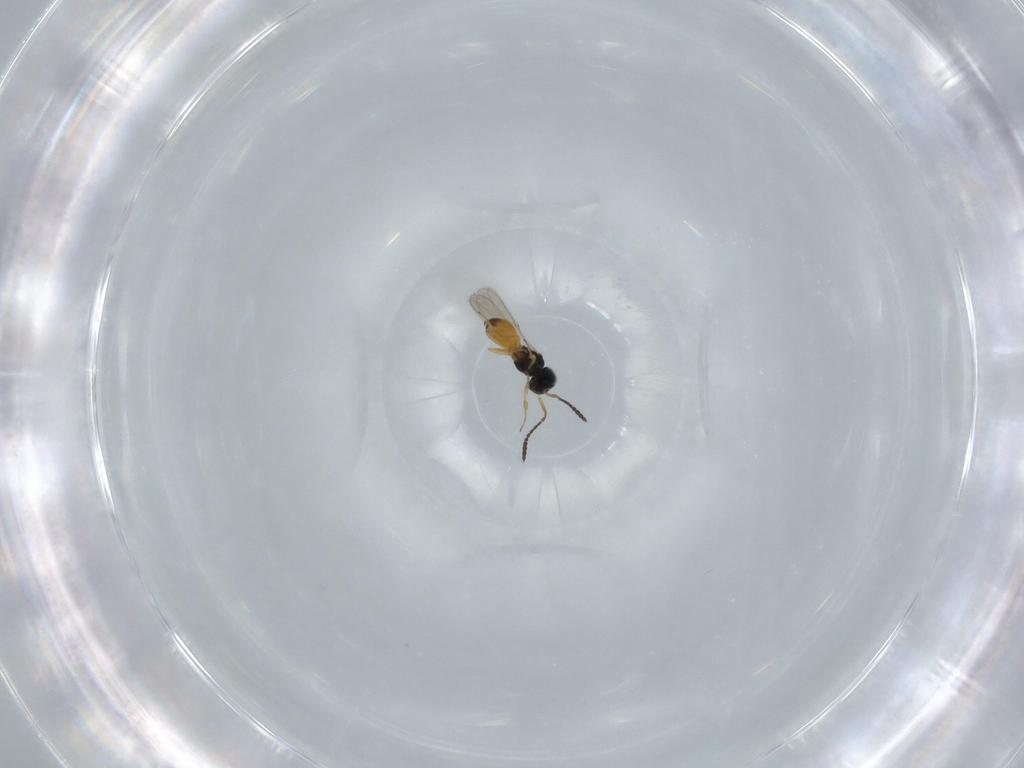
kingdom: Animalia
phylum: Arthropoda
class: Insecta
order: Hymenoptera
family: Scelionidae
